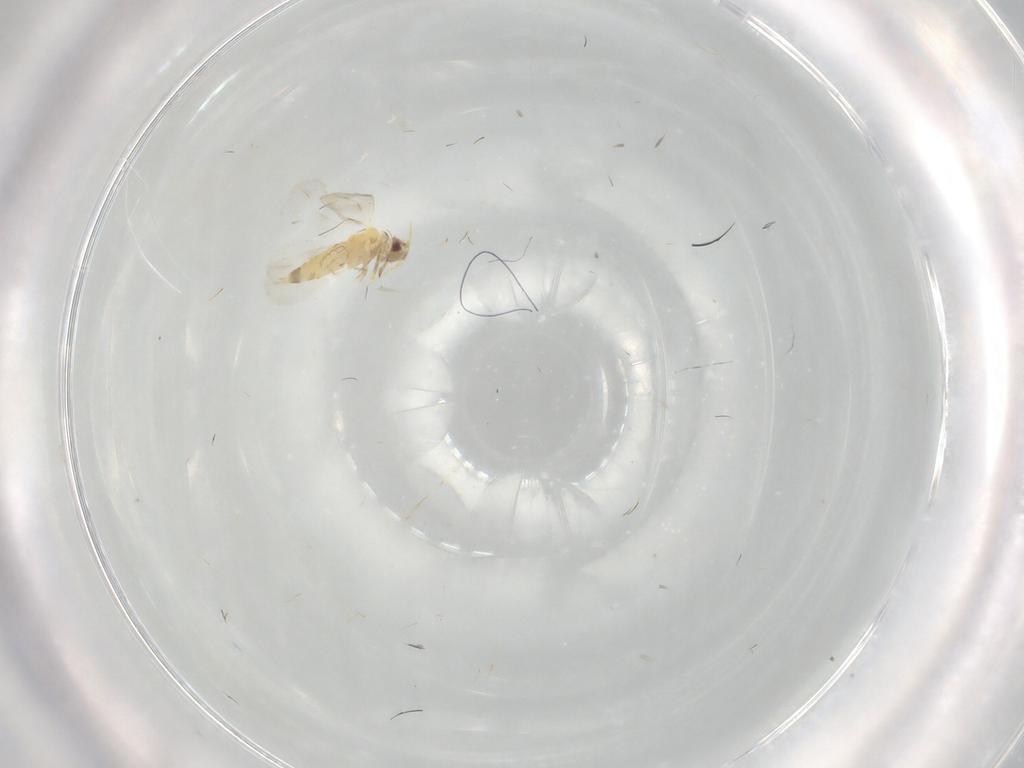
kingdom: Animalia
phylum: Arthropoda
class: Insecta
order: Hemiptera
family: Aleyrodidae
